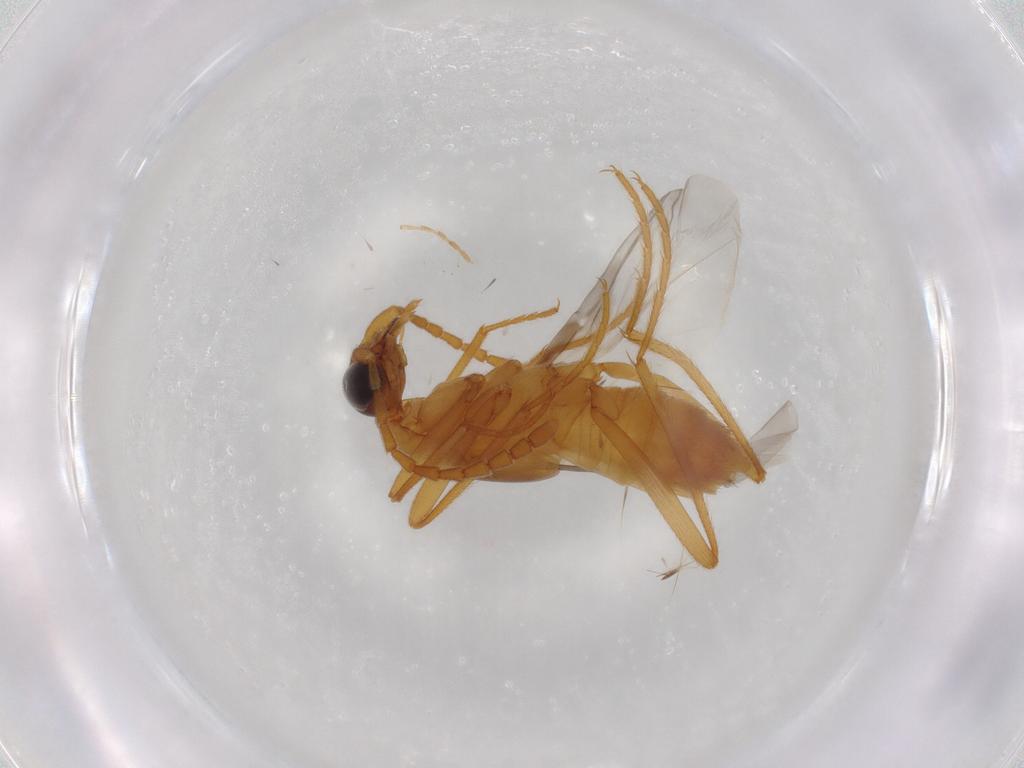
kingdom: Animalia
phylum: Arthropoda
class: Insecta
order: Coleoptera
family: Staphylinidae
